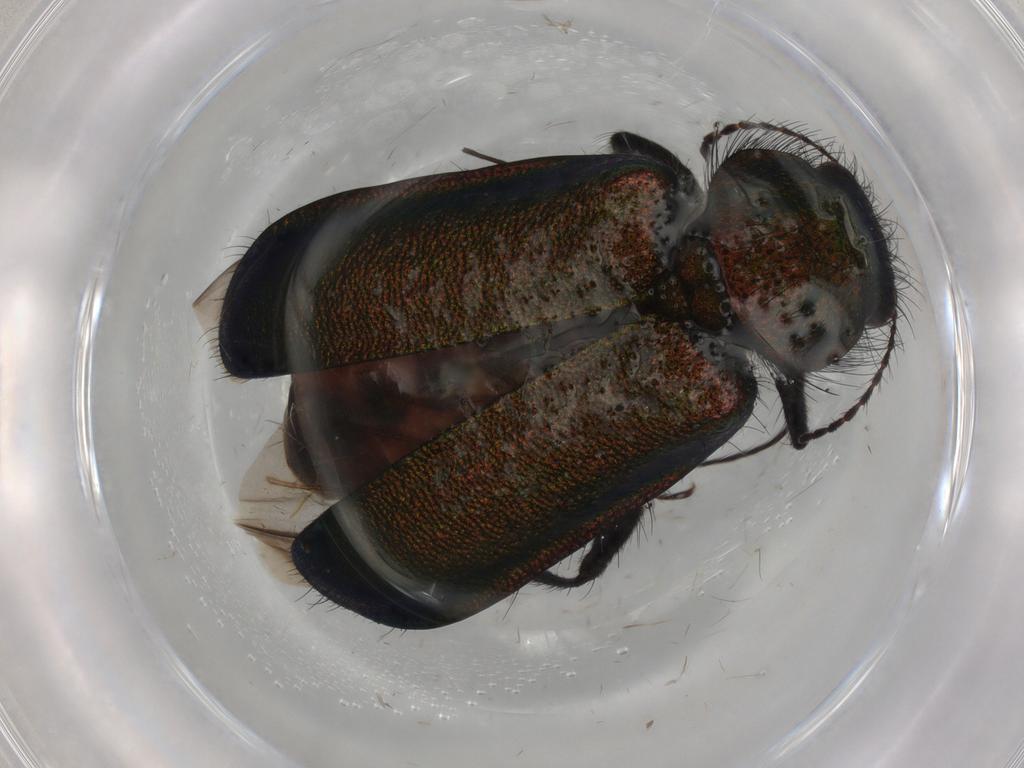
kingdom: Animalia
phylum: Arthropoda
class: Insecta
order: Coleoptera
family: Melyridae
